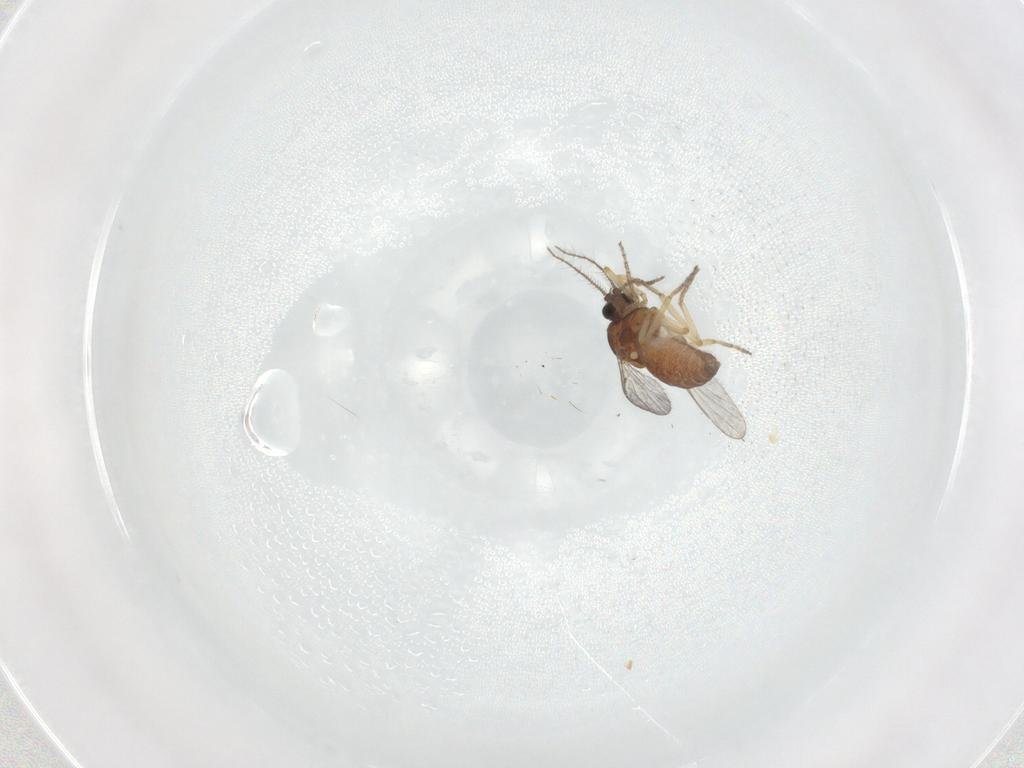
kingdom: Animalia
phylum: Arthropoda
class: Insecta
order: Diptera
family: Ceratopogonidae
